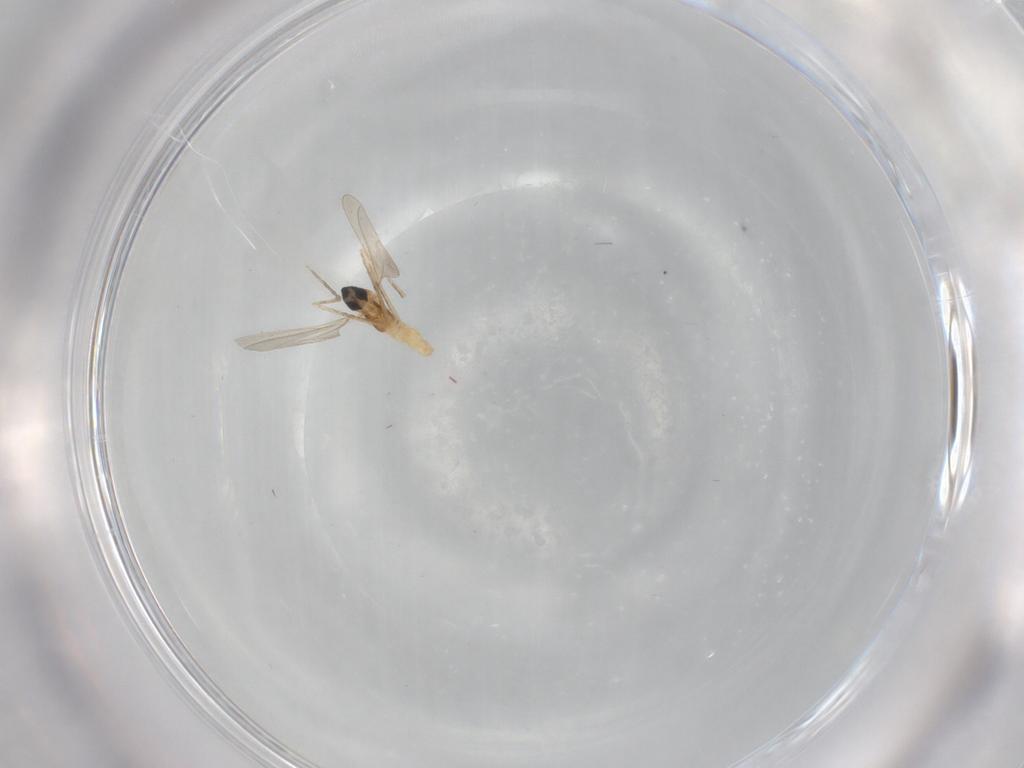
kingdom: Animalia
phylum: Arthropoda
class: Insecta
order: Diptera
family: Cecidomyiidae
